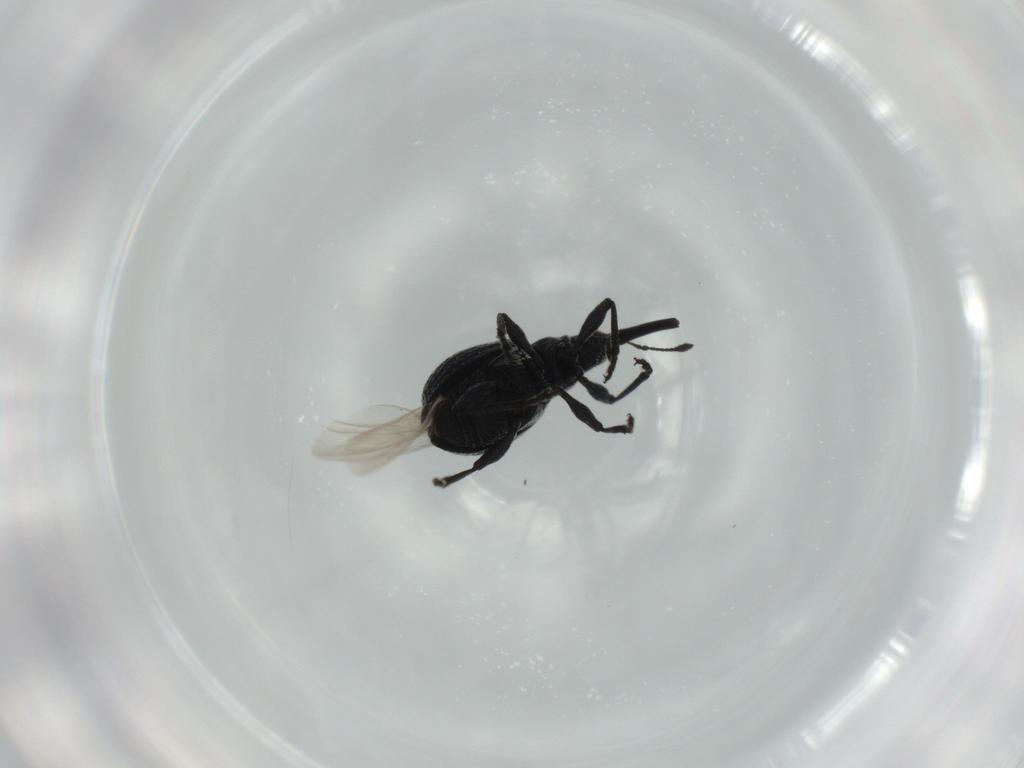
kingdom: Animalia
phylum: Arthropoda
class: Insecta
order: Coleoptera
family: Brentidae
